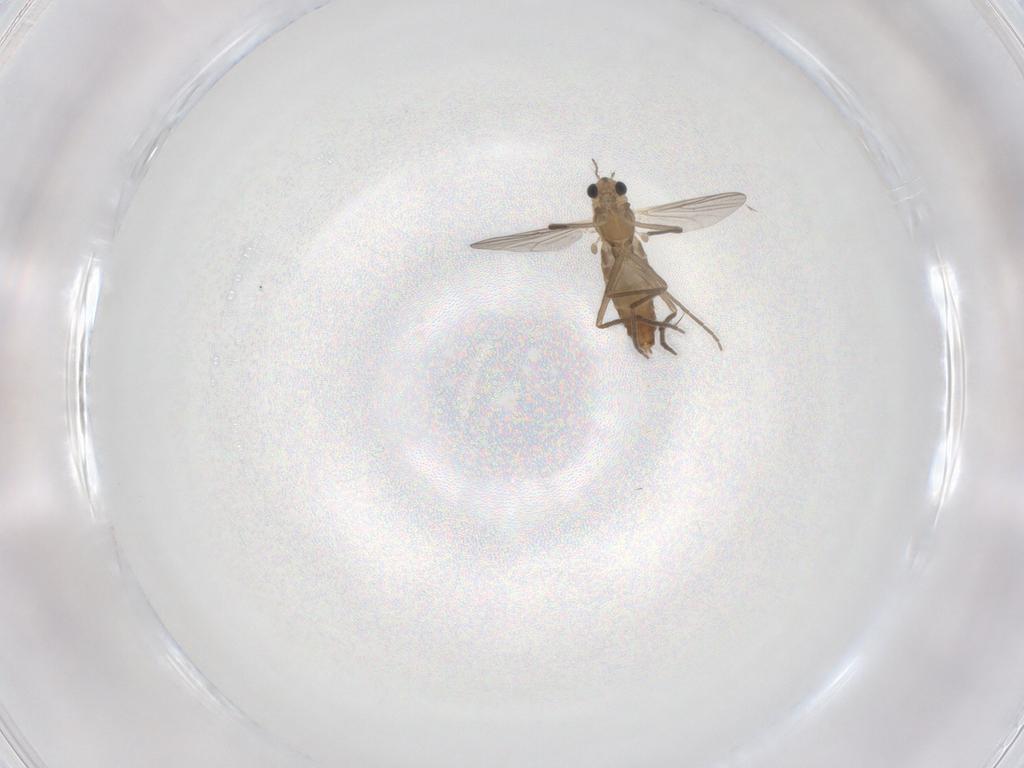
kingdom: Animalia
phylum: Arthropoda
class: Insecta
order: Diptera
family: Chironomidae
